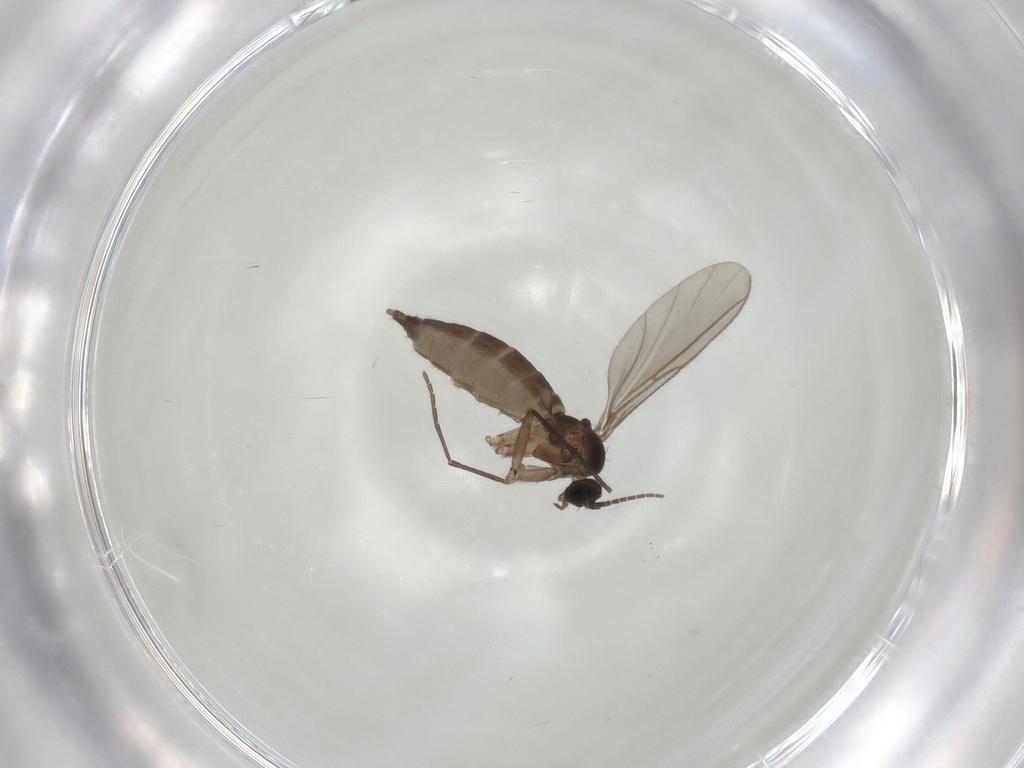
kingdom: Animalia
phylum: Arthropoda
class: Insecta
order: Diptera
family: Sciaridae
